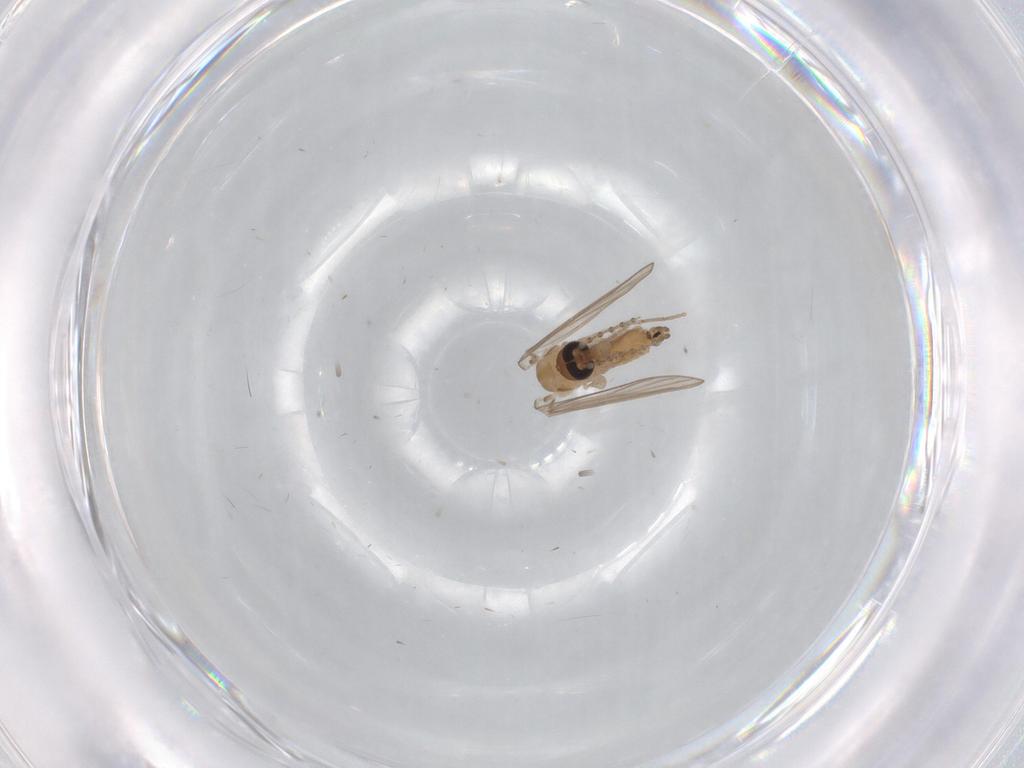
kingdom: Animalia
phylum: Arthropoda
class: Insecta
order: Diptera
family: Psychodidae
